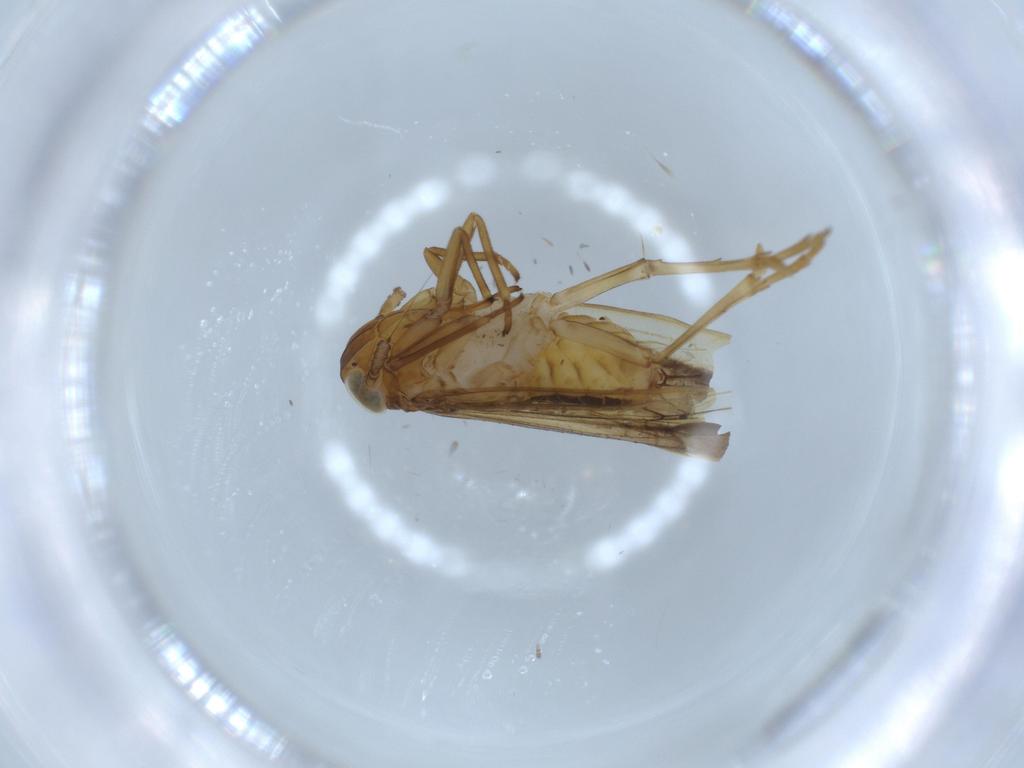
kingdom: Animalia
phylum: Arthropoda
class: Insecta
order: Hemiptera
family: Delphacidae
